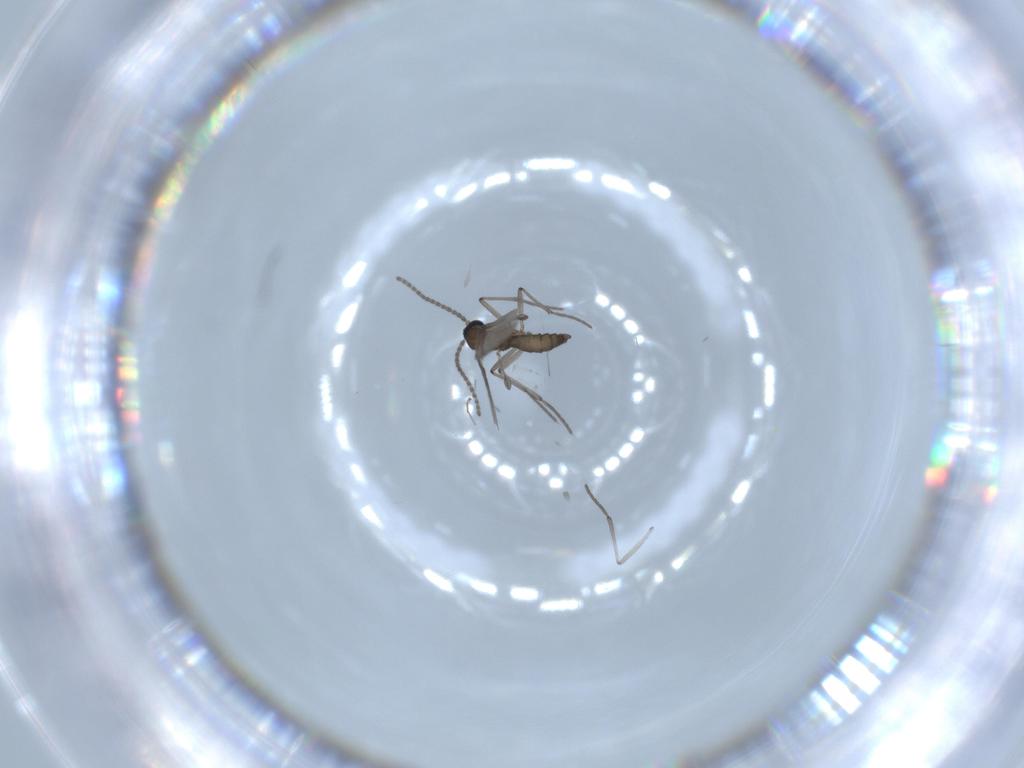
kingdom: Animalia
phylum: Arthropoda
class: Insecta
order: Diptera
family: Sciaridae
